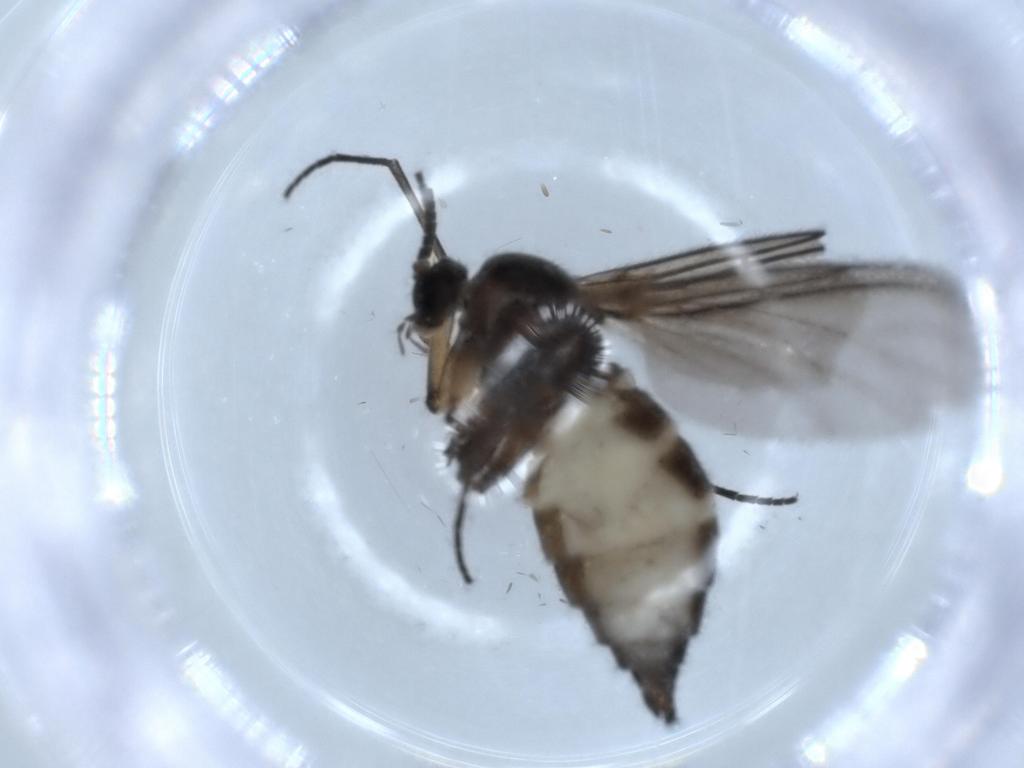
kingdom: Animalia
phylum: Arthropoda
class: Insecta
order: Diptera
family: Sciaridae
